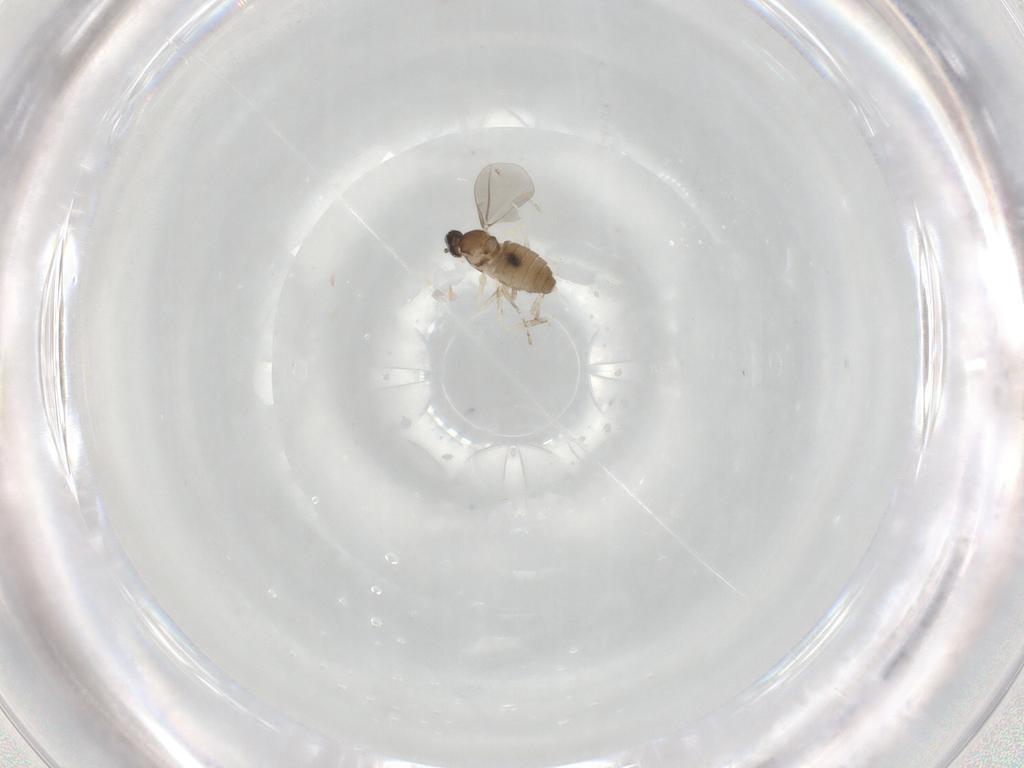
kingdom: Animalia
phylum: Arthropoda
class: Insecta
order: Diptera
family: Cecidomyiidae
